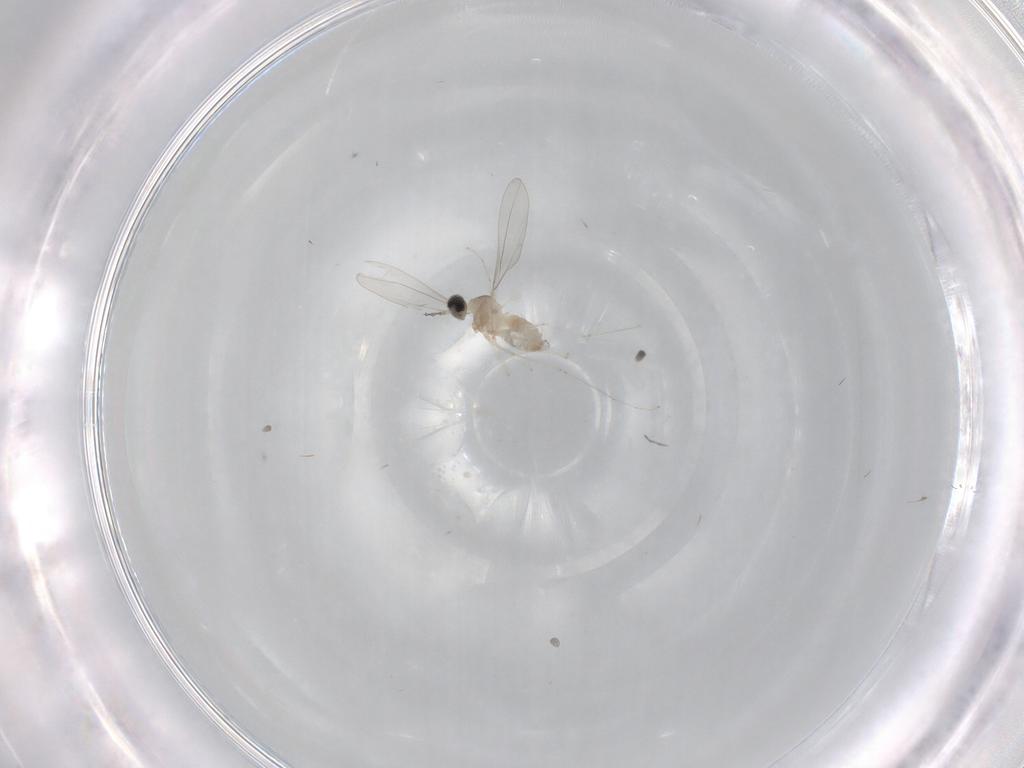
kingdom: Animalia
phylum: Arthropoda
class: Insecta
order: Diptera
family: Cecidomyiidae
